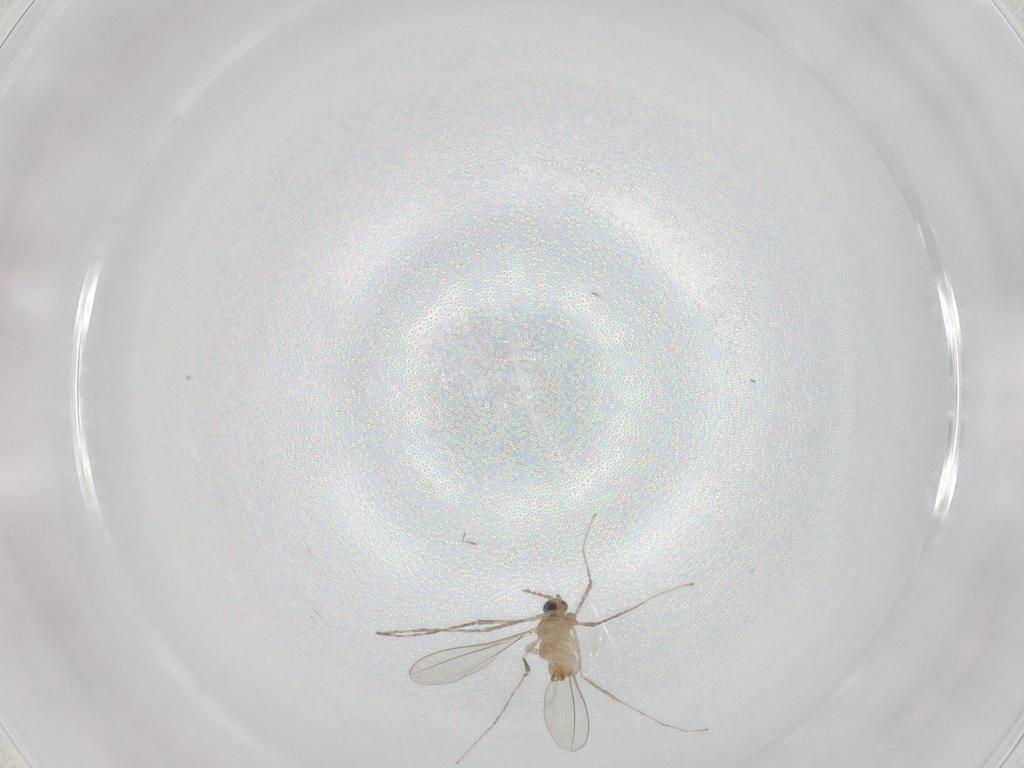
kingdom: Animalia
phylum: Arthropoda
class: Insecta
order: Diptera
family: Cecidomyiidae
